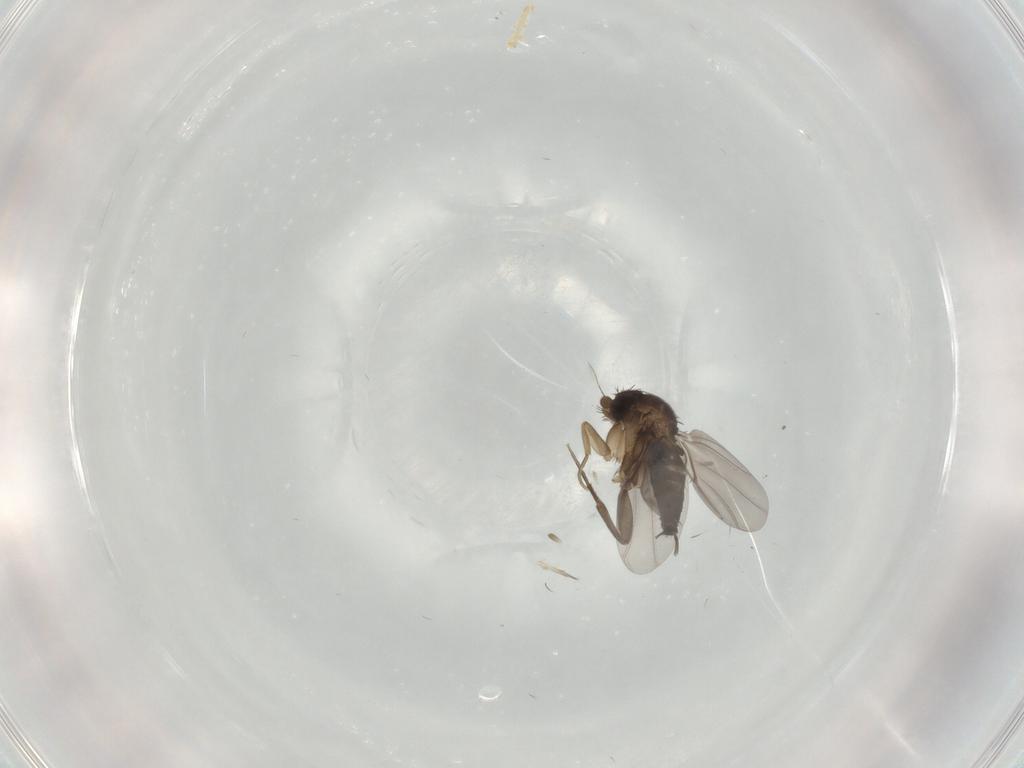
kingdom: Animalia
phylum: Arthropoda
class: Insecta
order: Diptera
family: Phoridae
